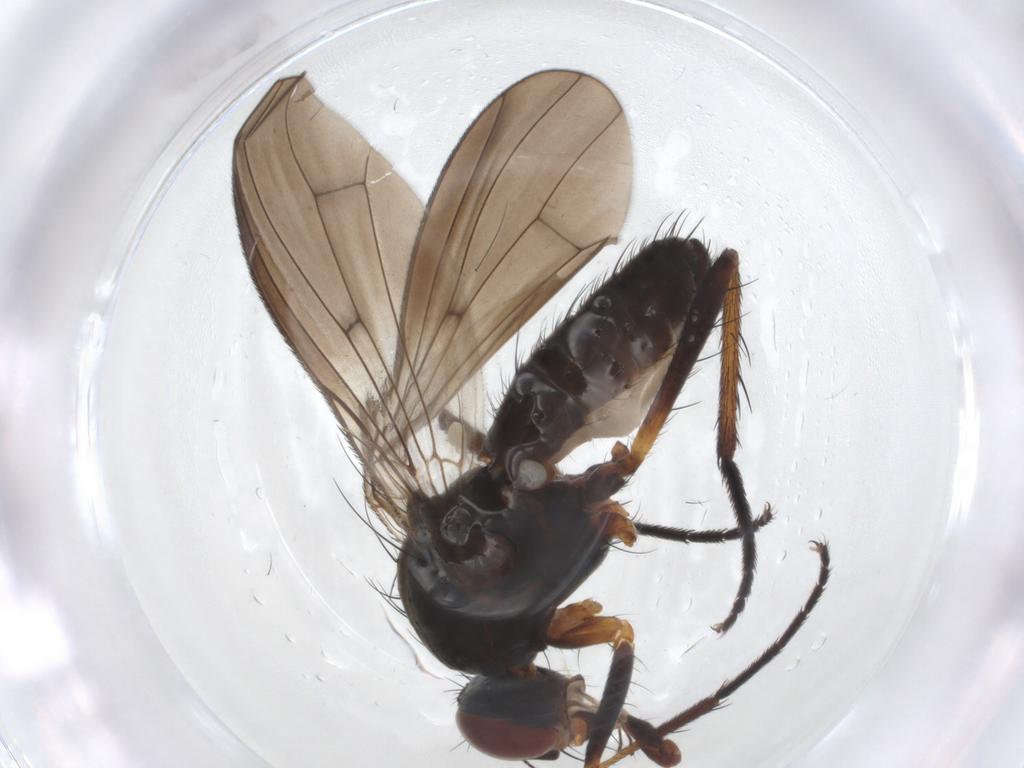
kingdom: Animalia
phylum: Arthropoda
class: Insecta
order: Diptera
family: Anthomyiidae
